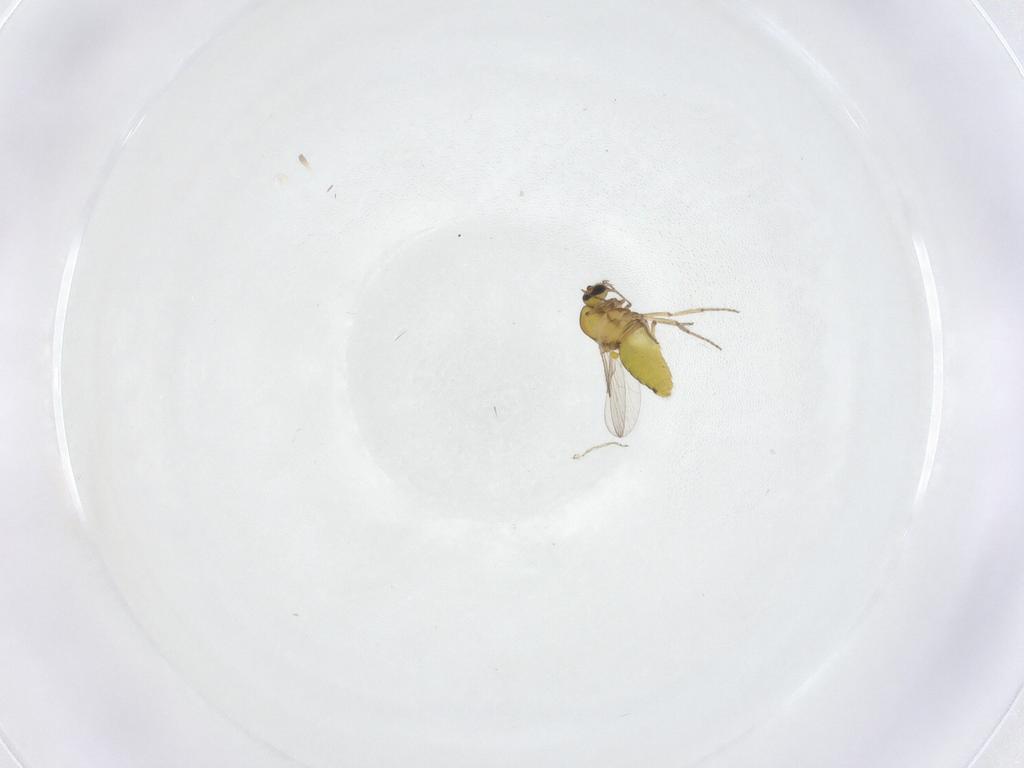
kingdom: Animalia
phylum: Arthropoda
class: Insecta
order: Diptera
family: Ceratopogonidae
